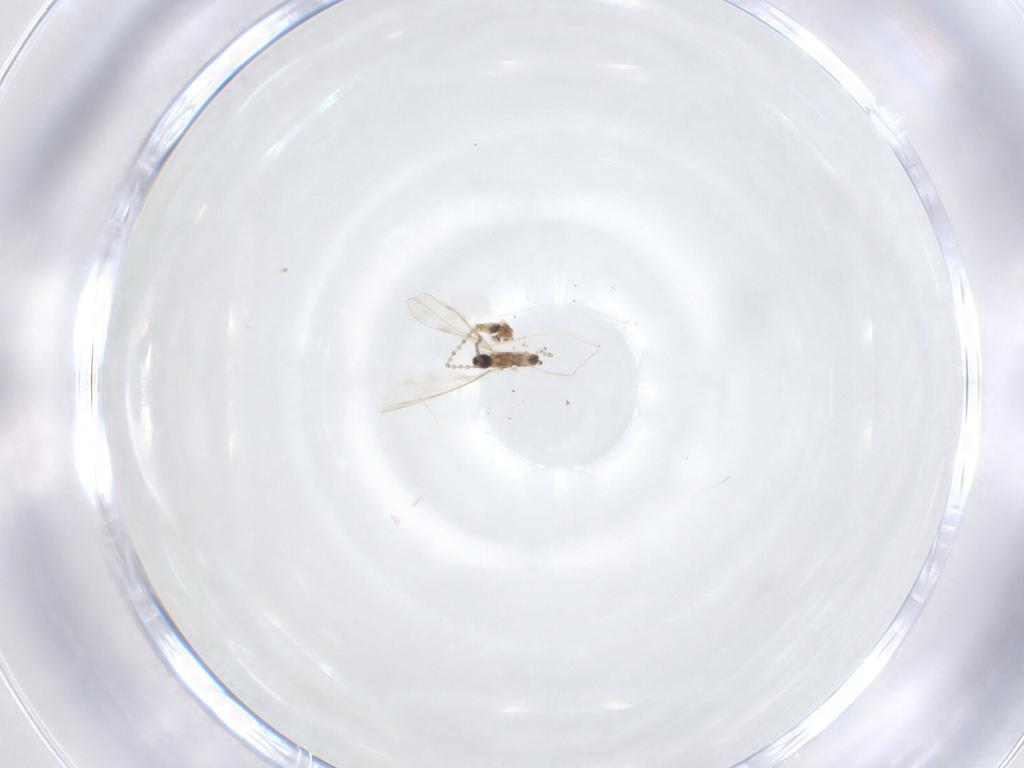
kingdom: Animalia
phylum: Arthropoda
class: Insecta
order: Diptera
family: Cecidomyiidae
